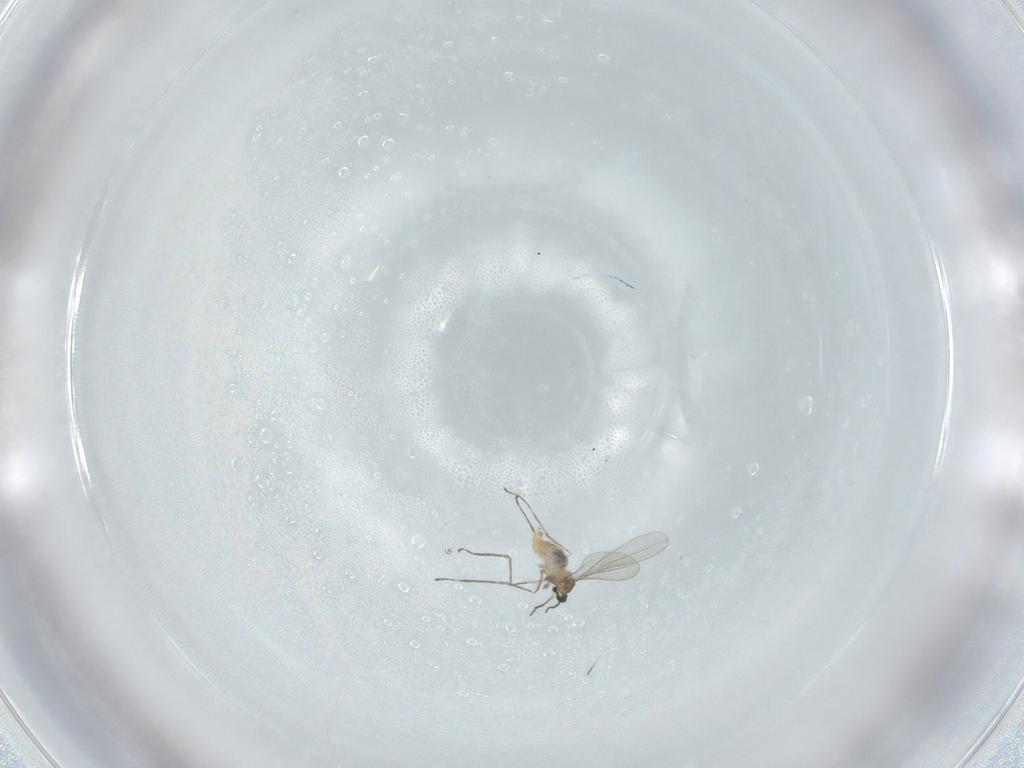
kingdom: Animalia
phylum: Arthropoda
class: Insecta
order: Diptera
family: Cecidomyiidae
